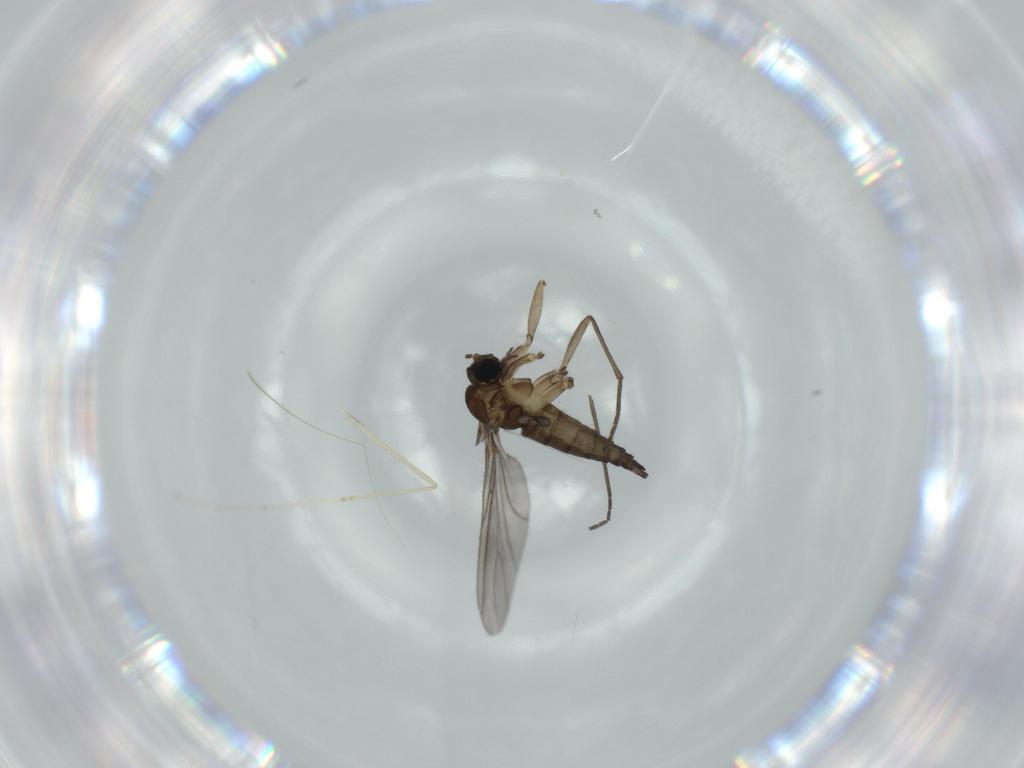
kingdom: Animalia
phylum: Arthropoda
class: Insecta
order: Diptera
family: Sciaridae
